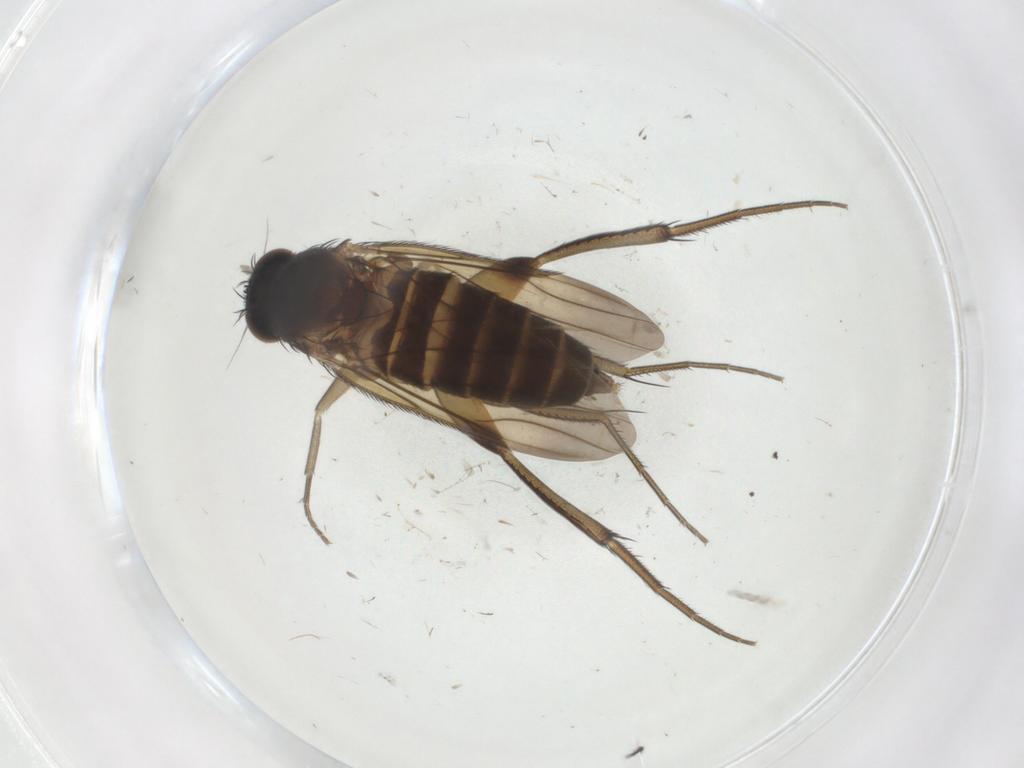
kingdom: Animalia
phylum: Arthropoda
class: Insecta
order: Diptera
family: Phoridae
